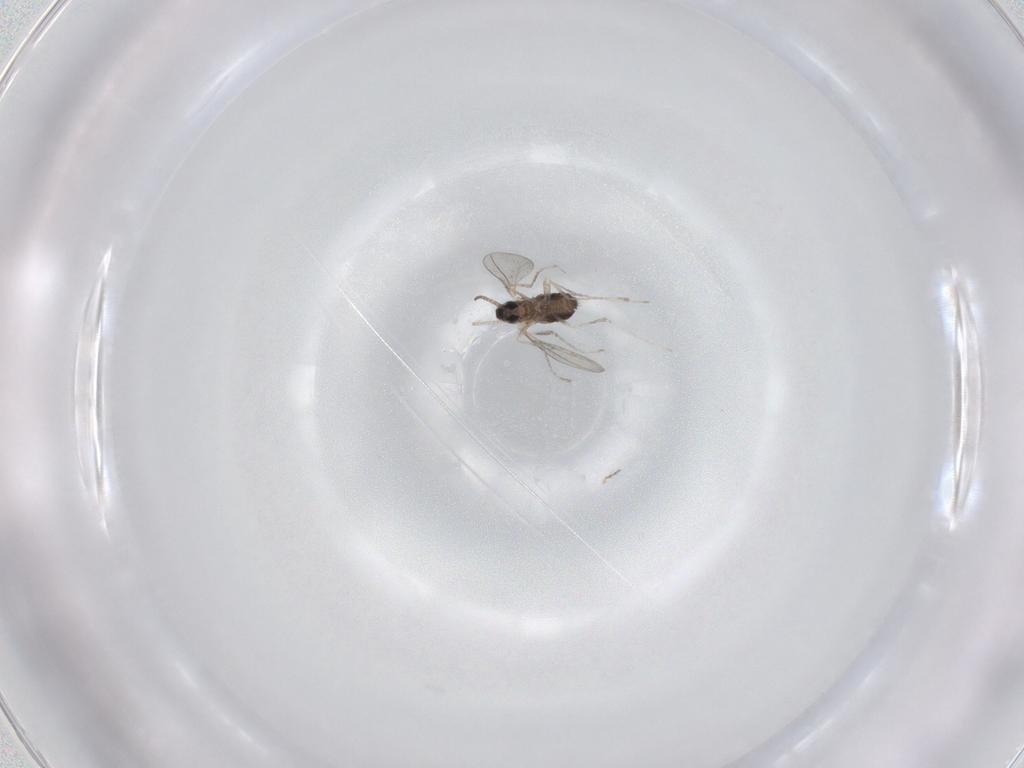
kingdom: Animalia
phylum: Arthropoda
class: Insecta
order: Diptera
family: Cecidomyiidae
